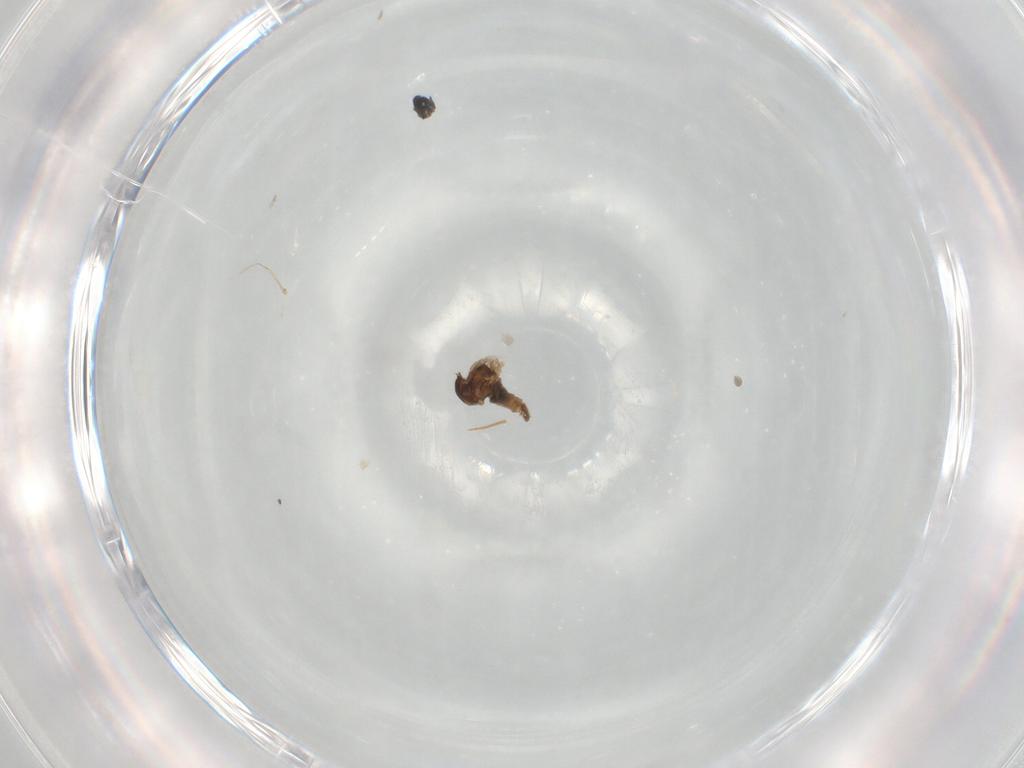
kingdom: Animalia
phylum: Arthropoda
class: Insecta
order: Diptera
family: Cecidomyiidae
